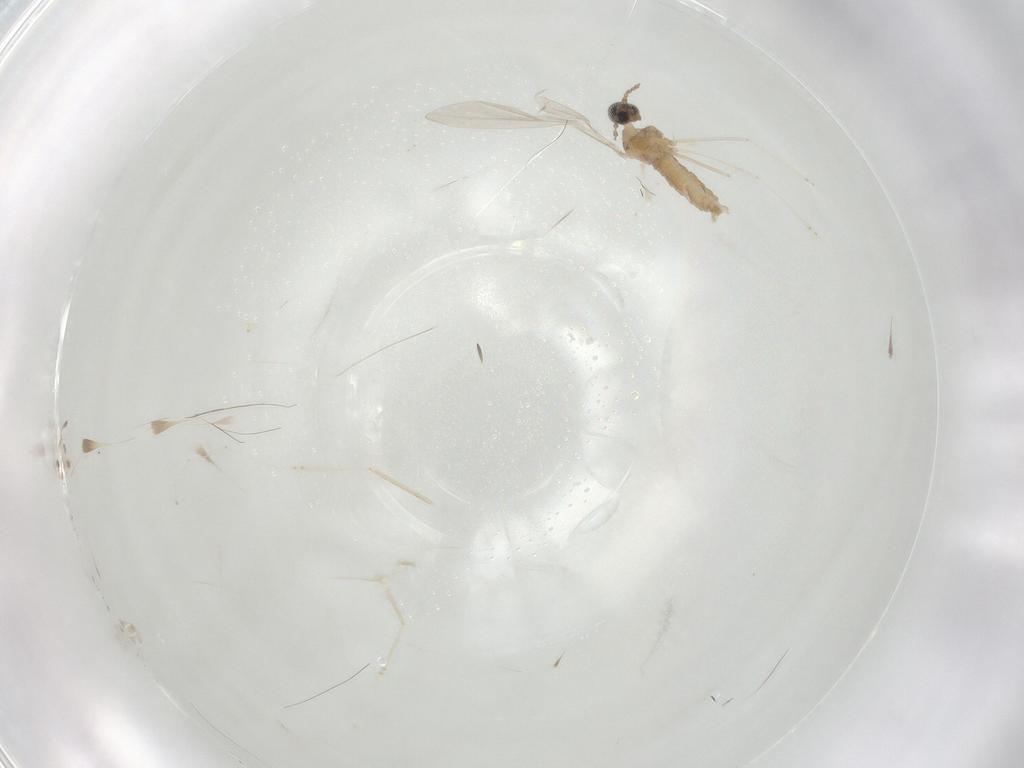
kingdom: Animalia
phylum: Arthropoda
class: Insecta
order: Diptera
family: Cecidomyiidae
